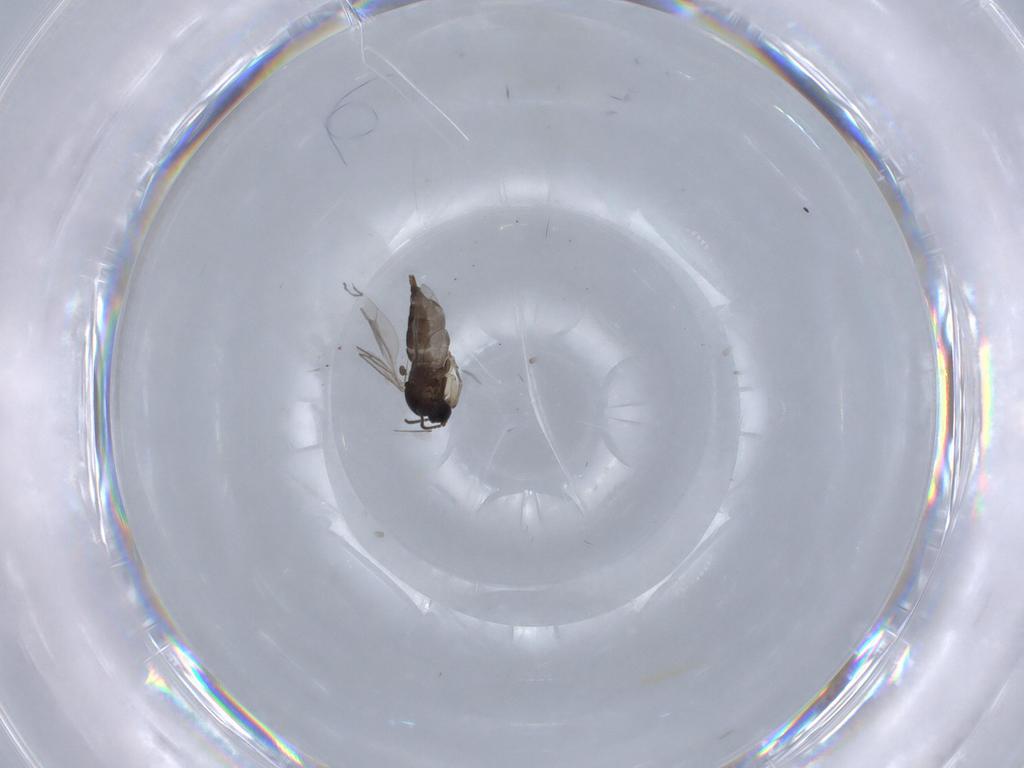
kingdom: Animalia
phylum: Arthropoda
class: Insecta
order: Diptera
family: Sciaridae
